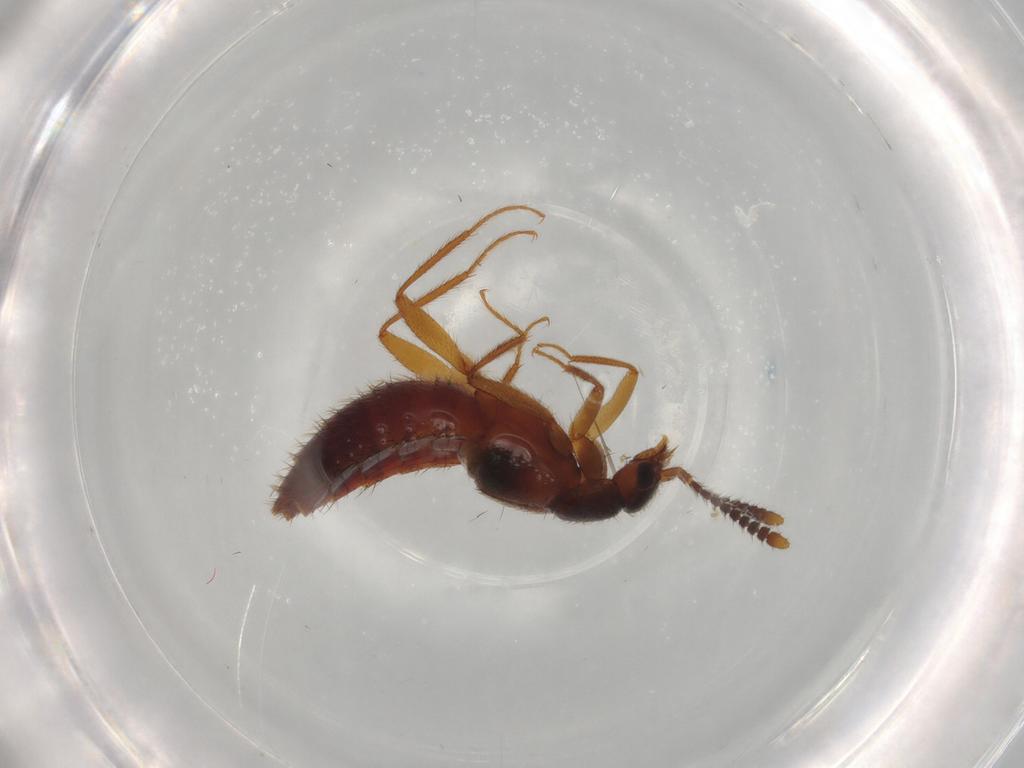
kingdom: Animalia
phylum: Arthropoda
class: Insecta
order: Coleoptera
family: Staphylinidae
